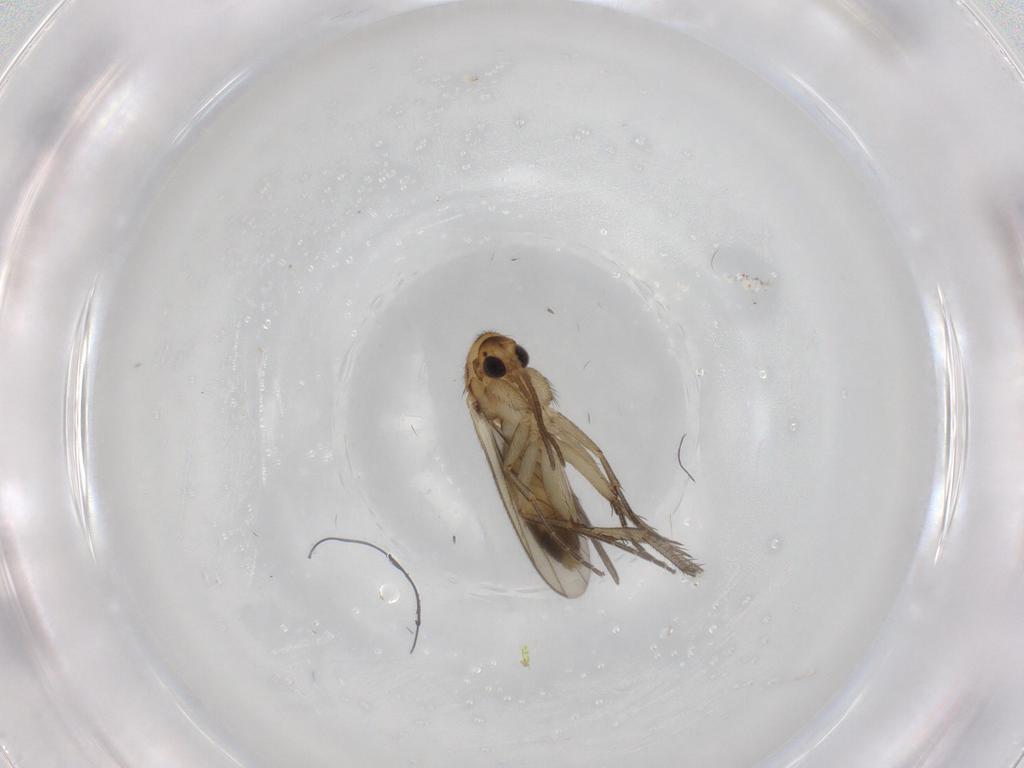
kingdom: Animalia
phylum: Arthropoda
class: Insecta
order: Diptera
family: Mycetophilidae
